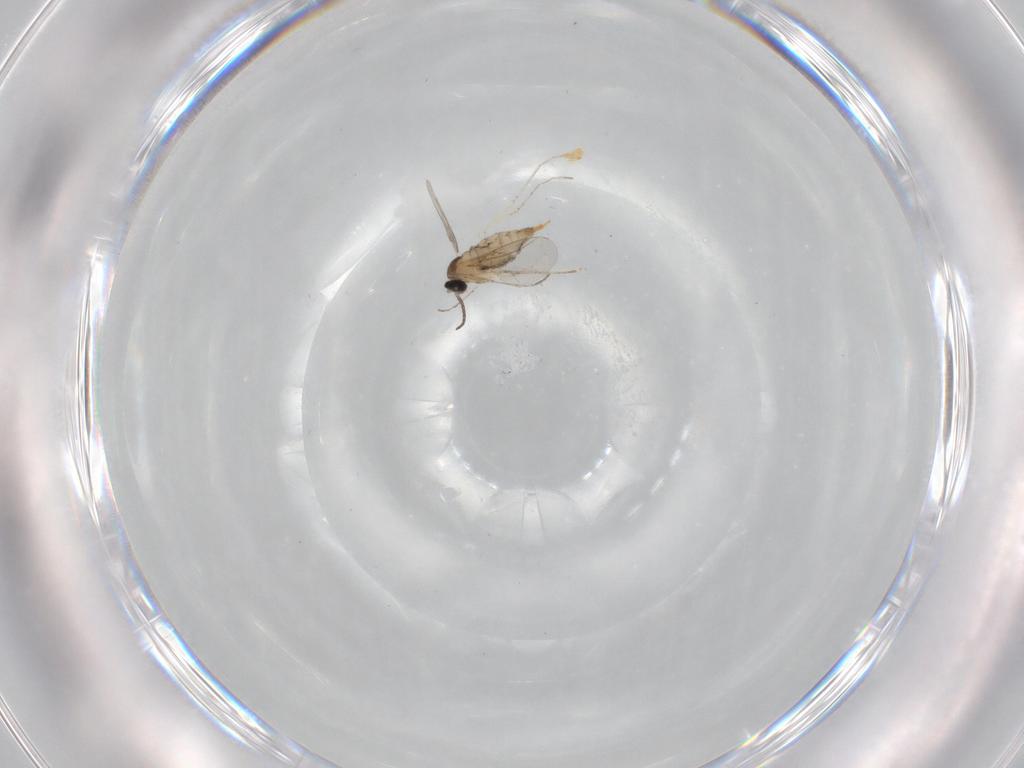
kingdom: Animalia
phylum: Arthropoda
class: Insecta
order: Diptera
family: Cecidomyiidae
